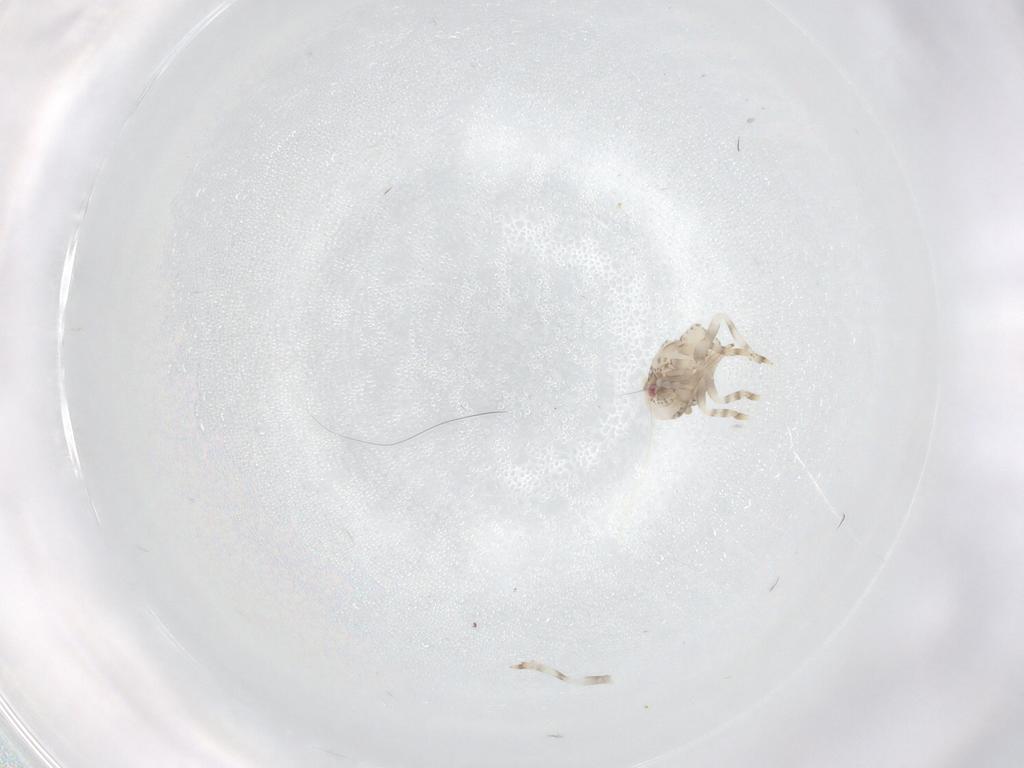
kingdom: Animalia
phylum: Arthropoda
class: Insecta
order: Hemiptera
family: Acanaloniidae
